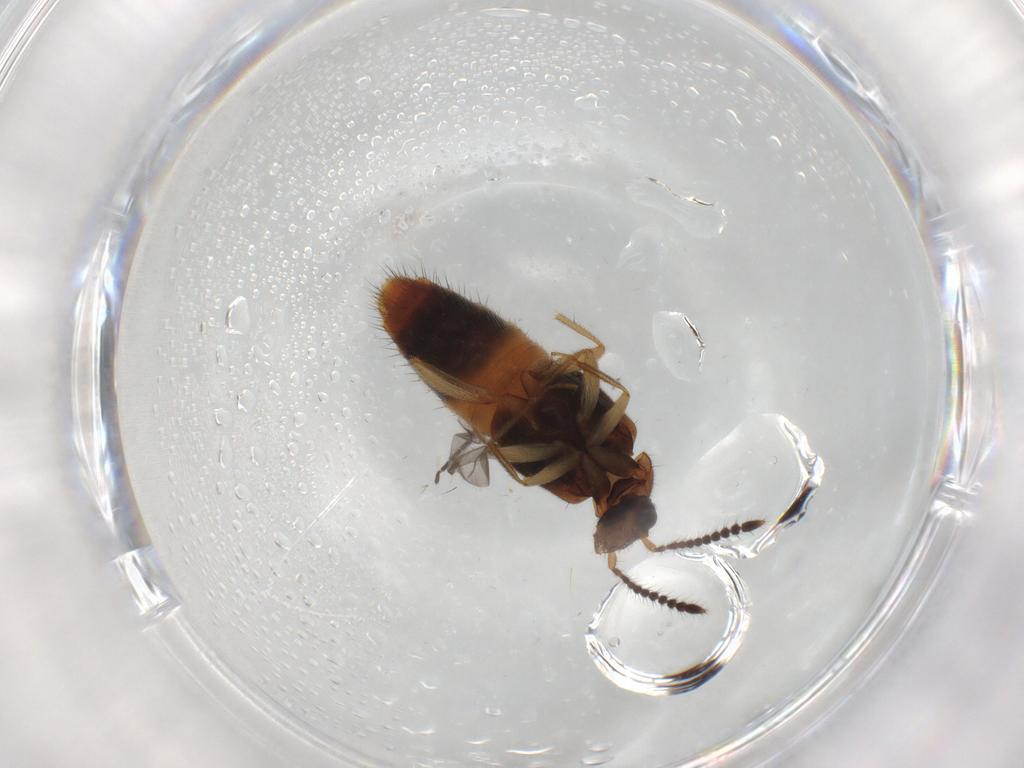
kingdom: Animalia
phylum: Arthropoda
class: Insecta
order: Coleoptera
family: Staphylinidae
